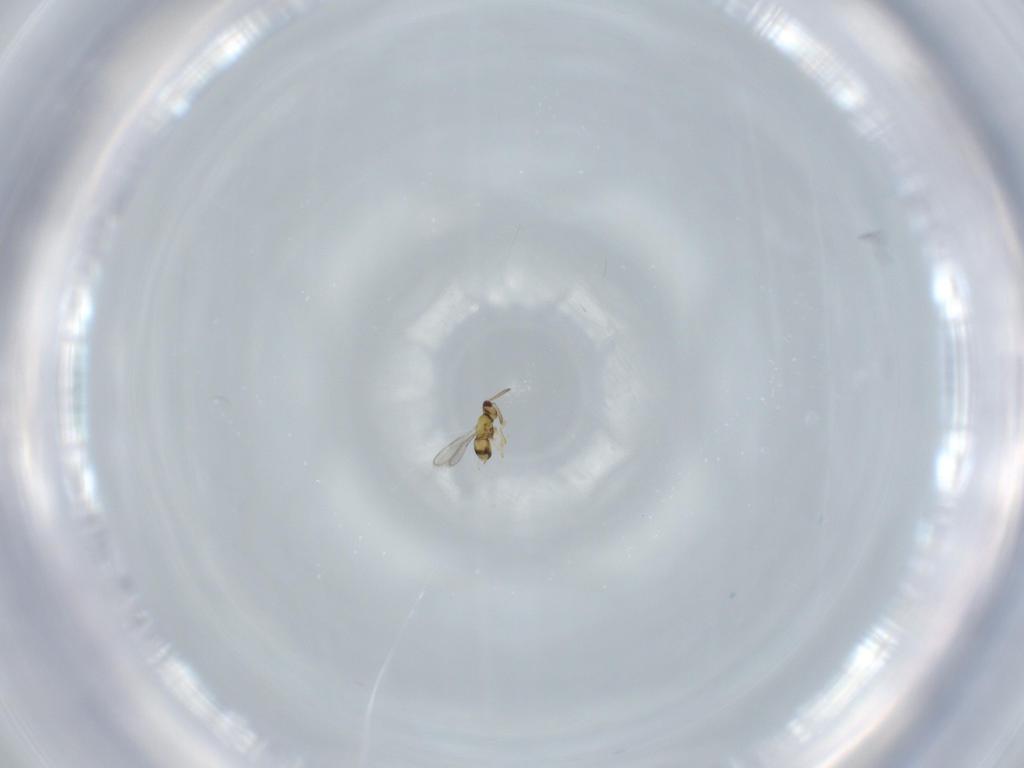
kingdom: Animalia
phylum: Arthropoda
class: Insecta
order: Hymenoptera
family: Aphelinidae
